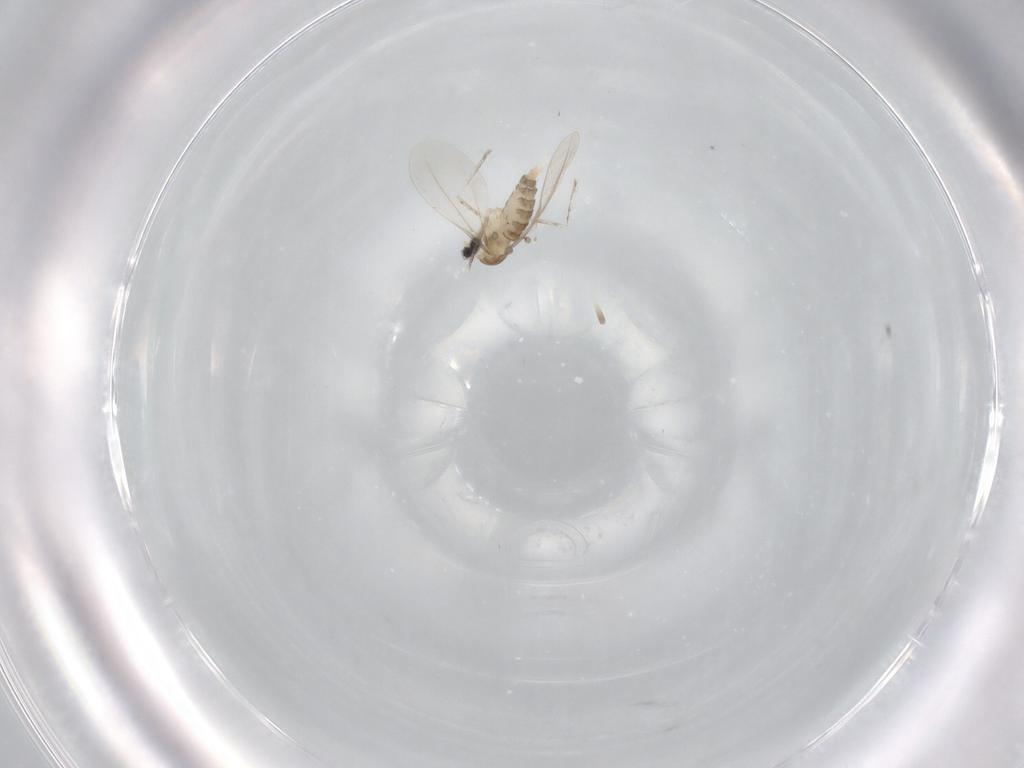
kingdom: Animalia
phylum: Arthropoda
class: Insecta
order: Diptera
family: Cecidomyiidae
